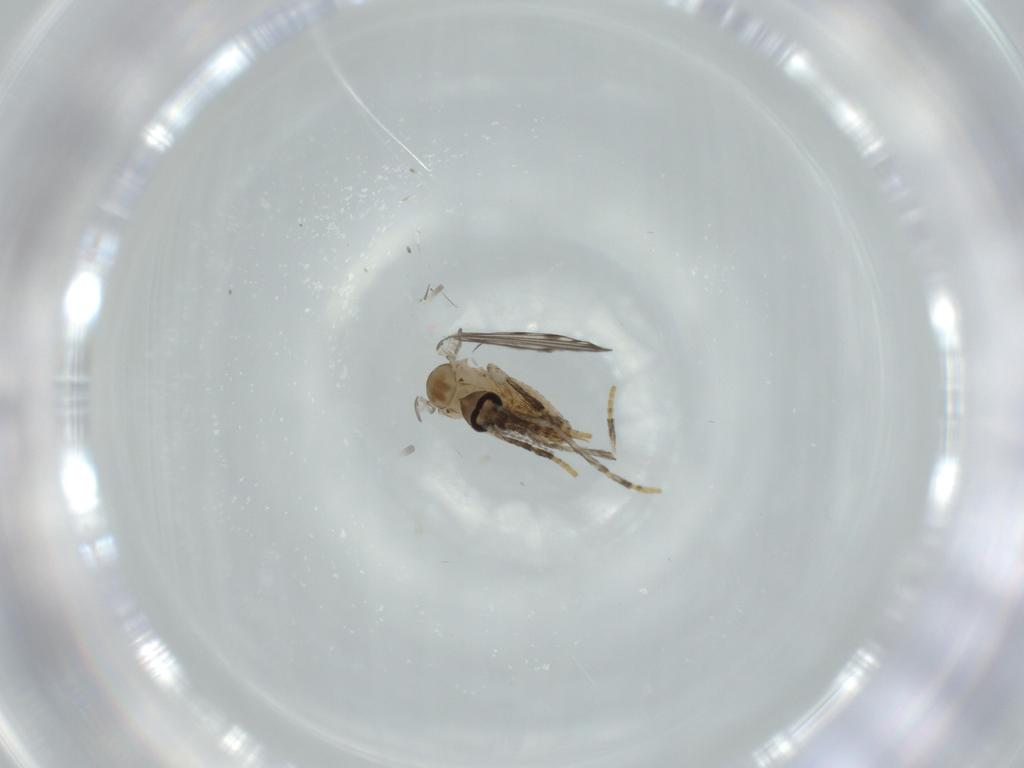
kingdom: Animalia
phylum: Arthropoda
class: Insecta
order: Diptera
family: Psychodidae
